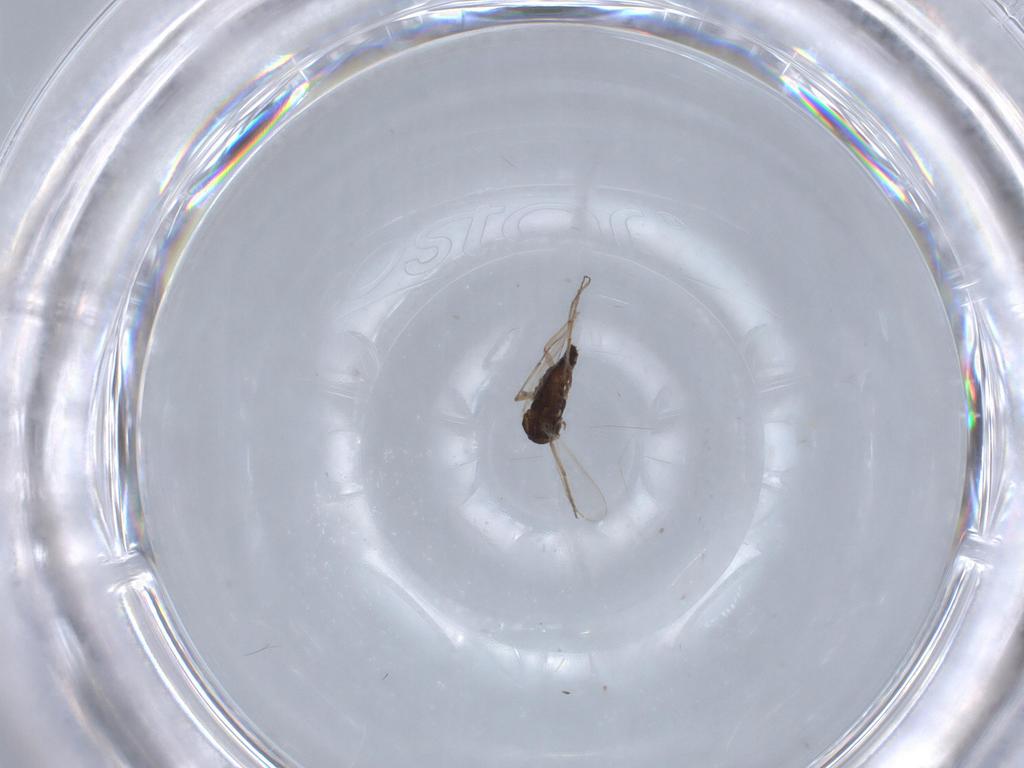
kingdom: Animalia
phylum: Arthropoda
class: Insecta
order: Diptera
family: Chironomidae
